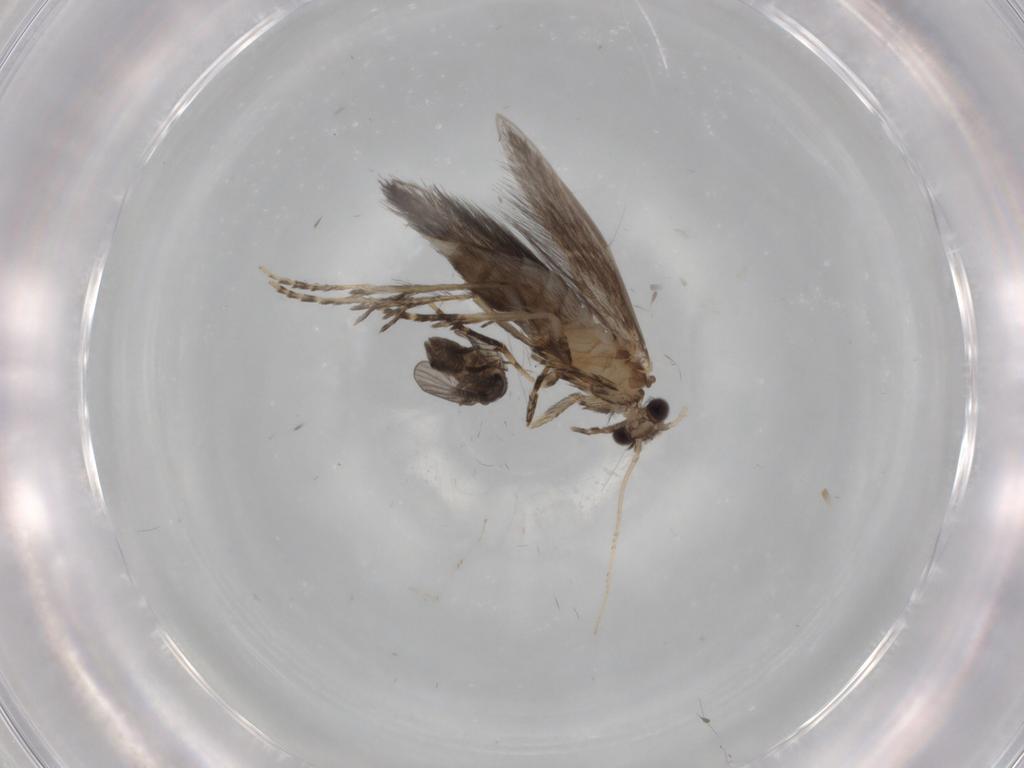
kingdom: Animalia
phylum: Arthropoda
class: Insecta
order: Diptera
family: Psychodidae
